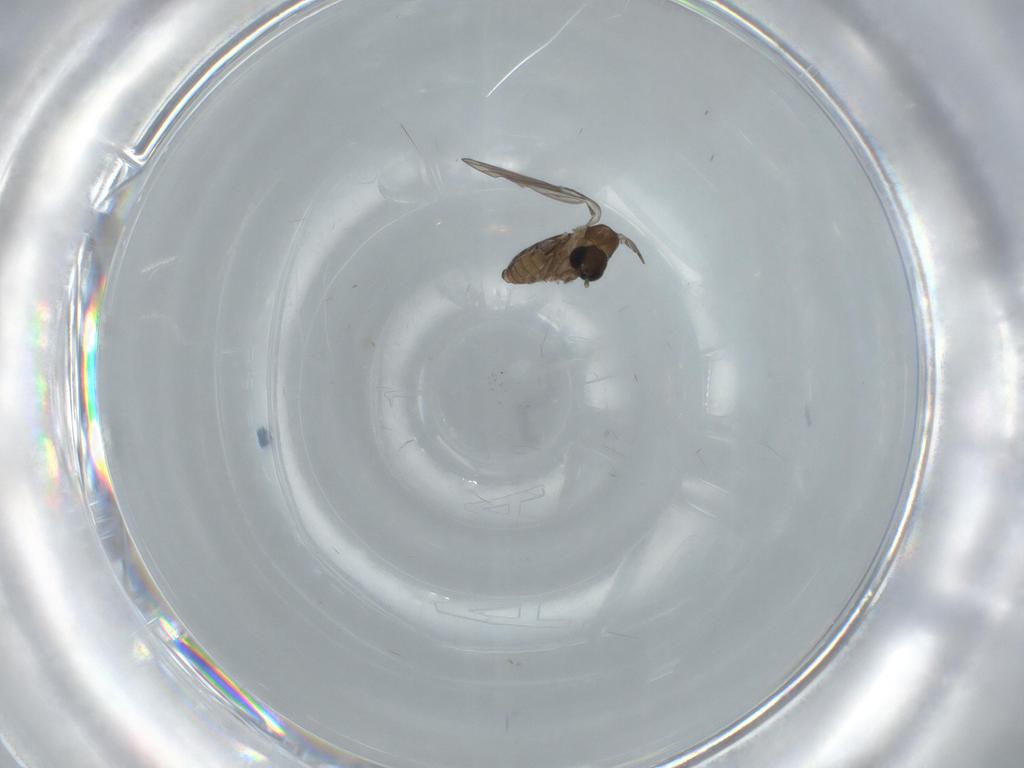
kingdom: Animalia
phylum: Arthropoda
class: Insecta
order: Diptera
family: Psychodidae
